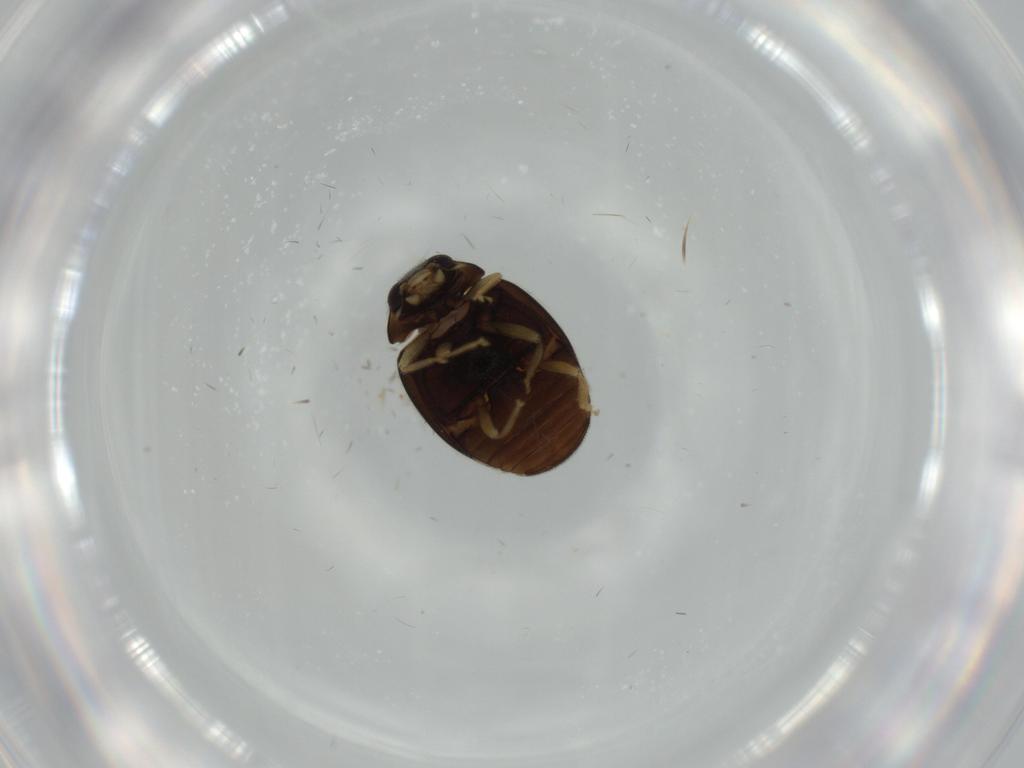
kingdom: Animalia
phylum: Arthropoda
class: Insecta
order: Coleoptera
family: Coccinellidae
